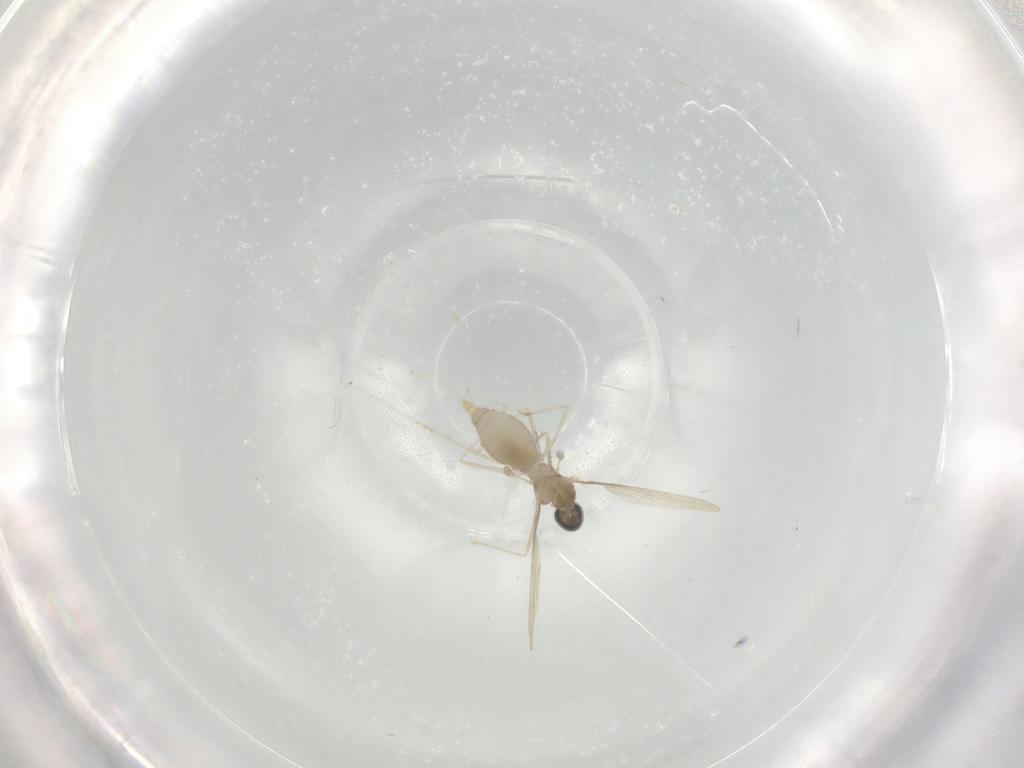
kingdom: Animalia
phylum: Arthropoda
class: Insecta
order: Diptera
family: Cecidomyiidae
